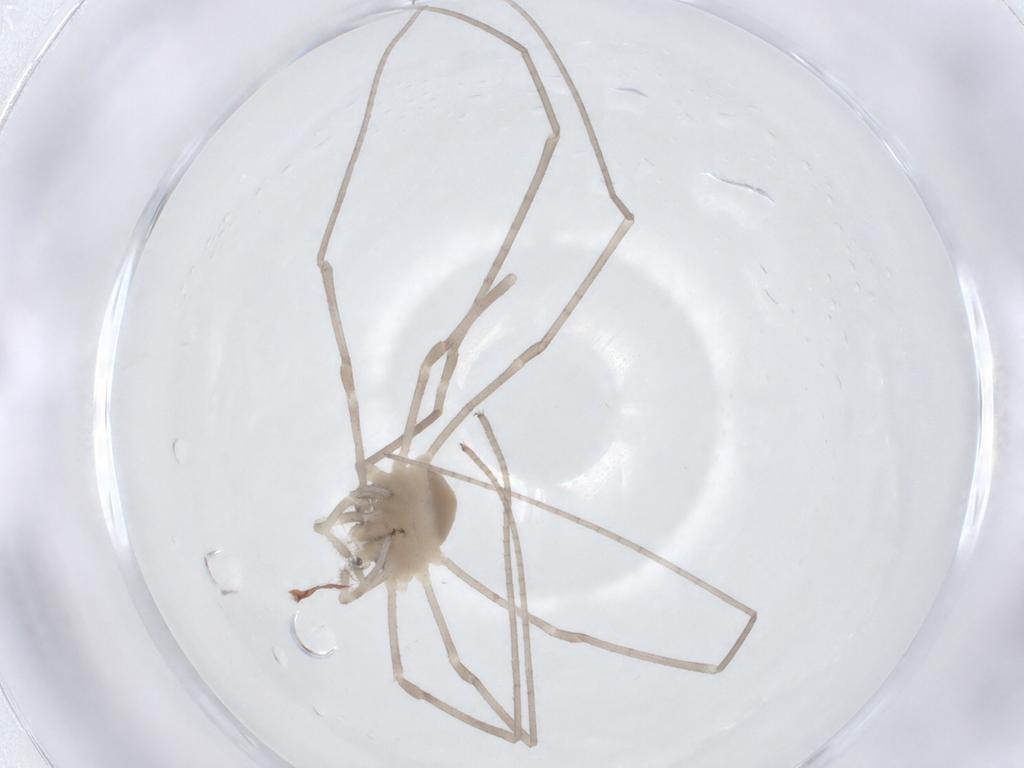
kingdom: Animalia
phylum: Arthropoda
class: Arachnida
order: Opiliones
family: Sclerosomatidae
